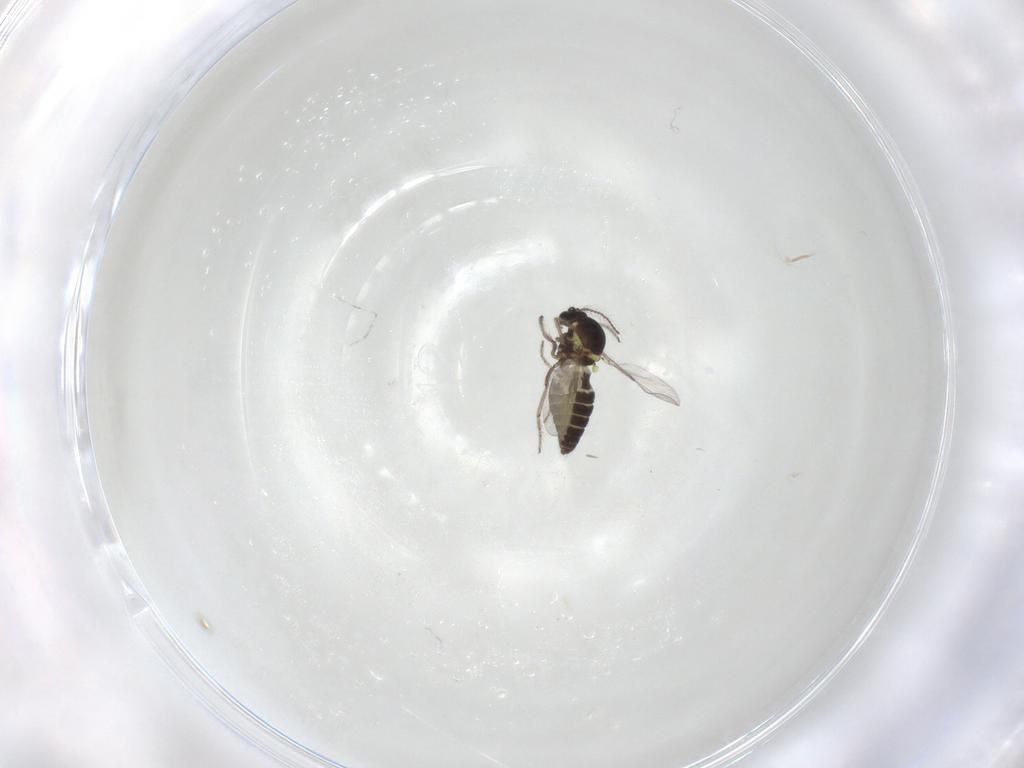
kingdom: Animalia
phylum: Arthropoda
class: Insecta
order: Diptera
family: Ceratopogonidae
